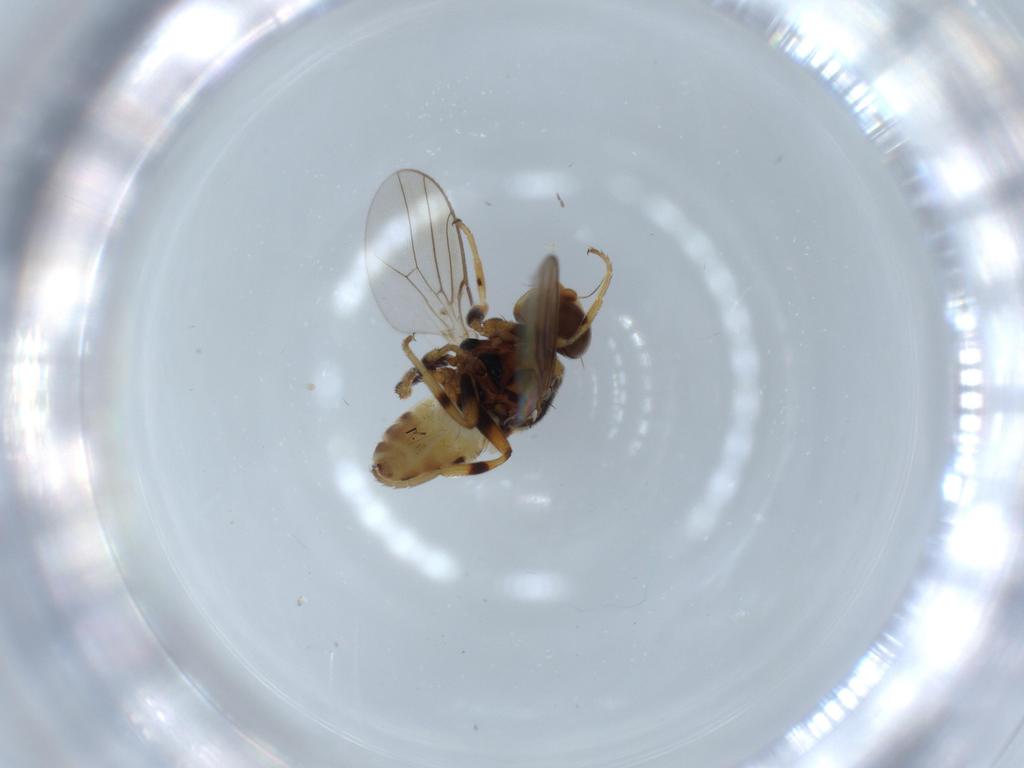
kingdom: Animalia
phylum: Arthropoda
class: Insecta
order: Diptera
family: Chloropidae
